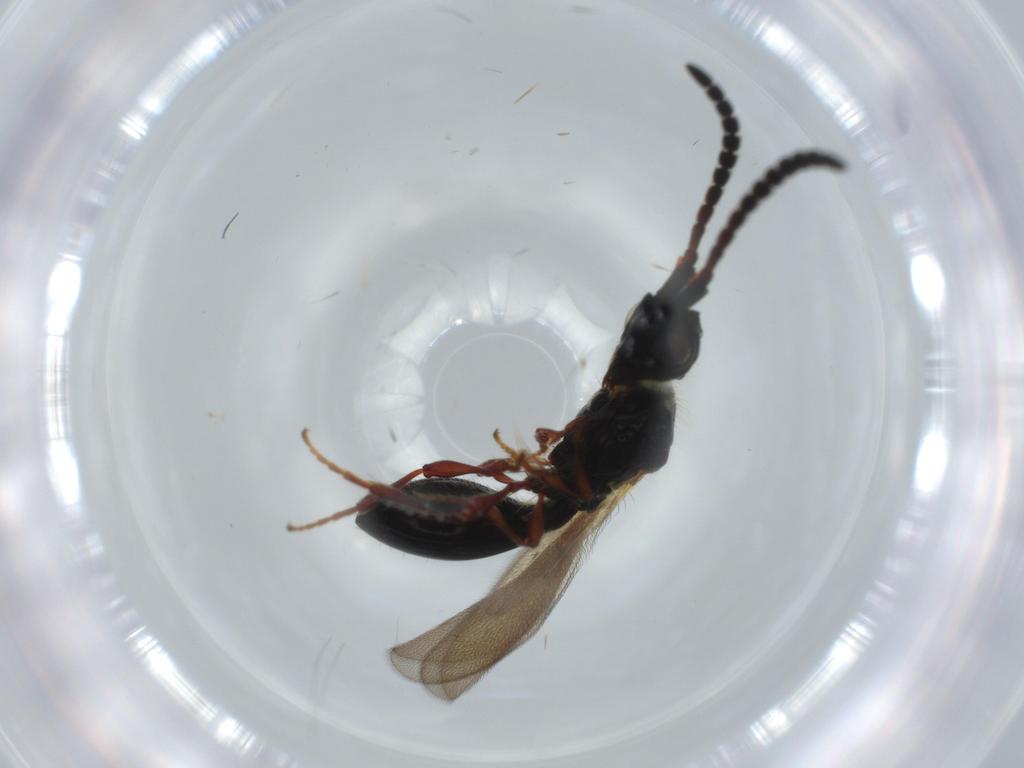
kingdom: Animalia
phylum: Arthropoda
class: Insecta
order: Hymenoptera
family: Diapriidae
